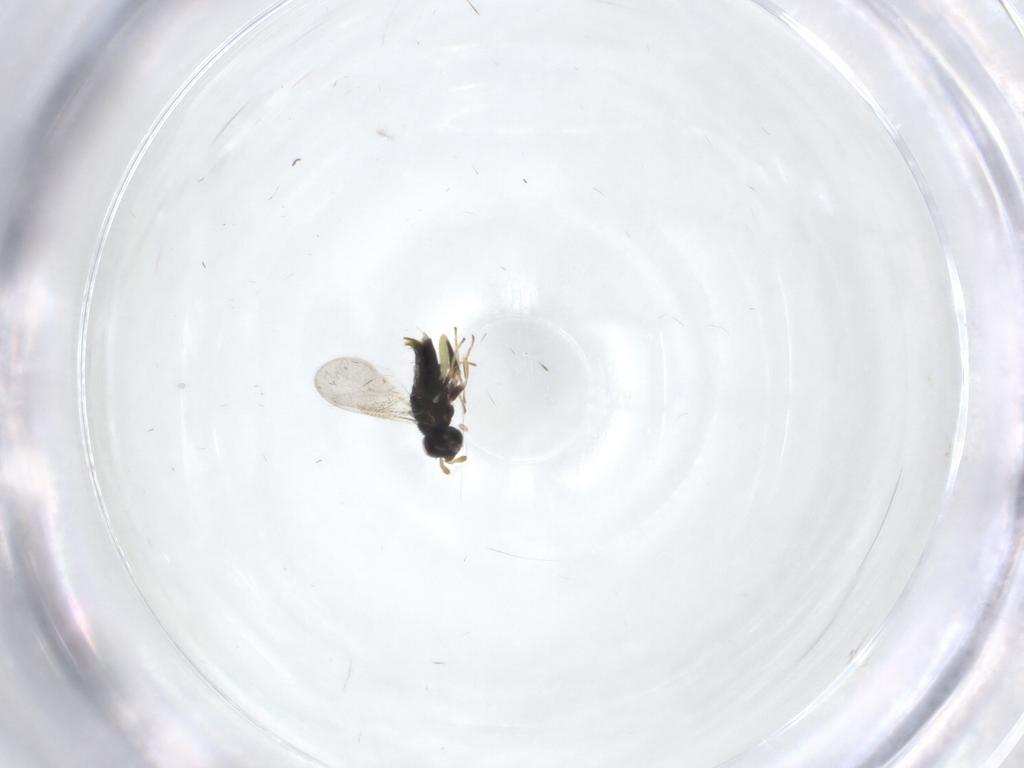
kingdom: Animalia
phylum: Arthropoda
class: Insecta
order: Hymenoptera
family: Aphelinidae
